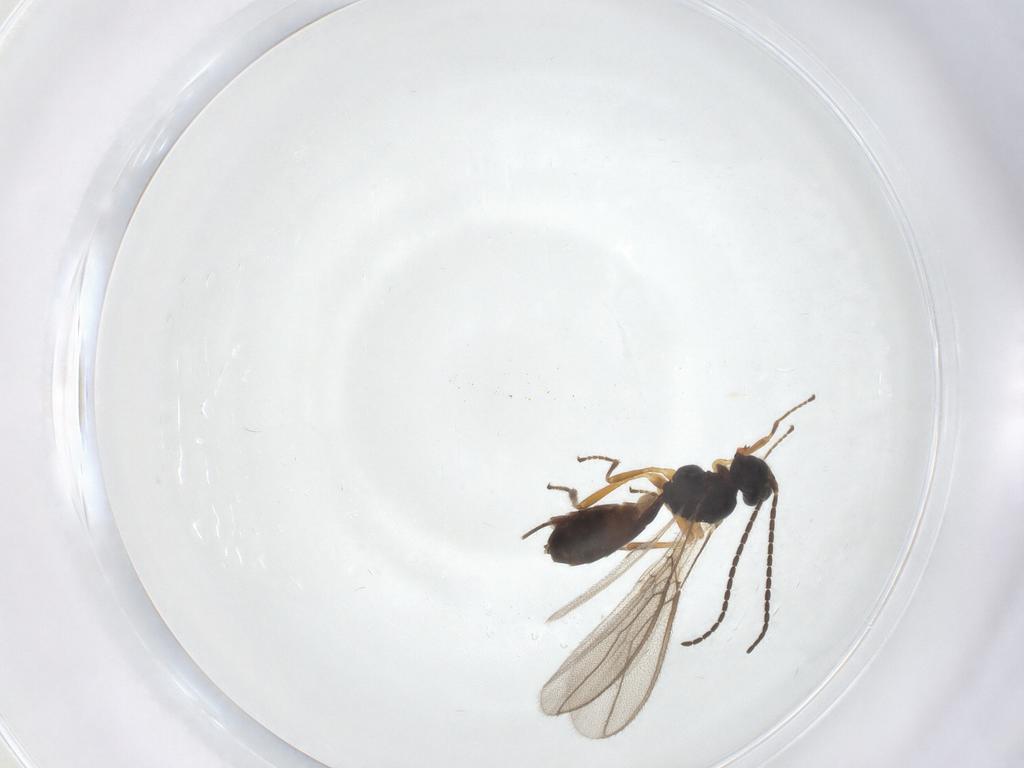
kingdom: Animalia
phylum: Arthropoda
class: Insecta
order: Hymenoptera
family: Braconidae
